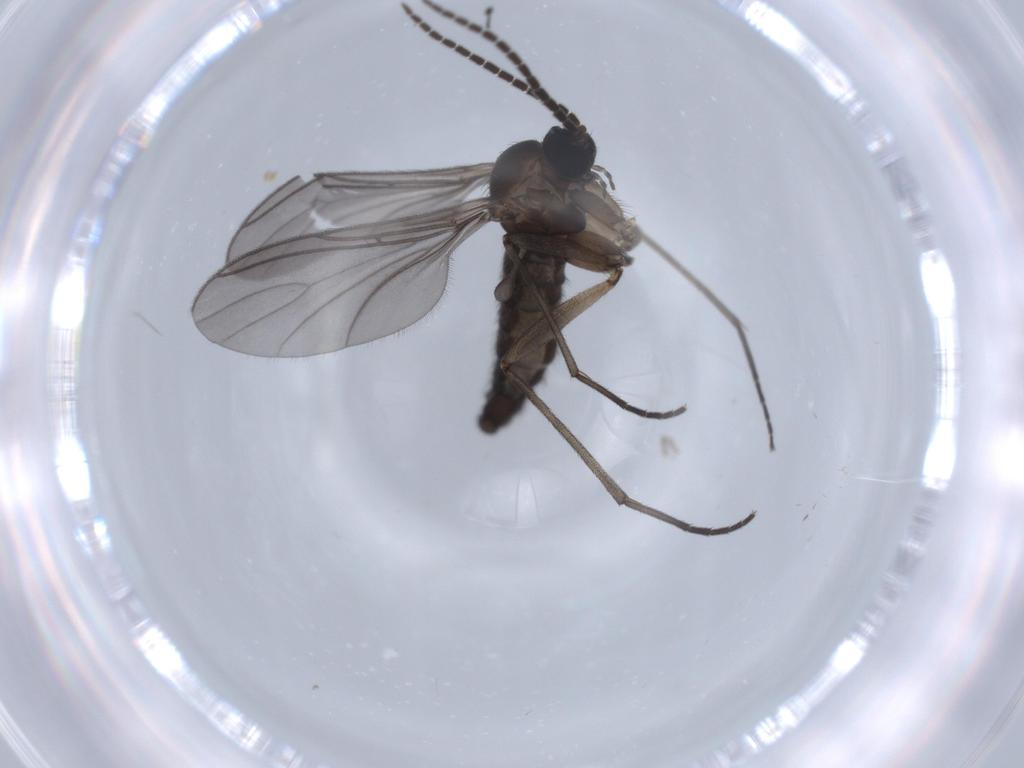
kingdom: Animalia
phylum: Arthropoda
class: Insecta
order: Diptera
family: Sciaridae
